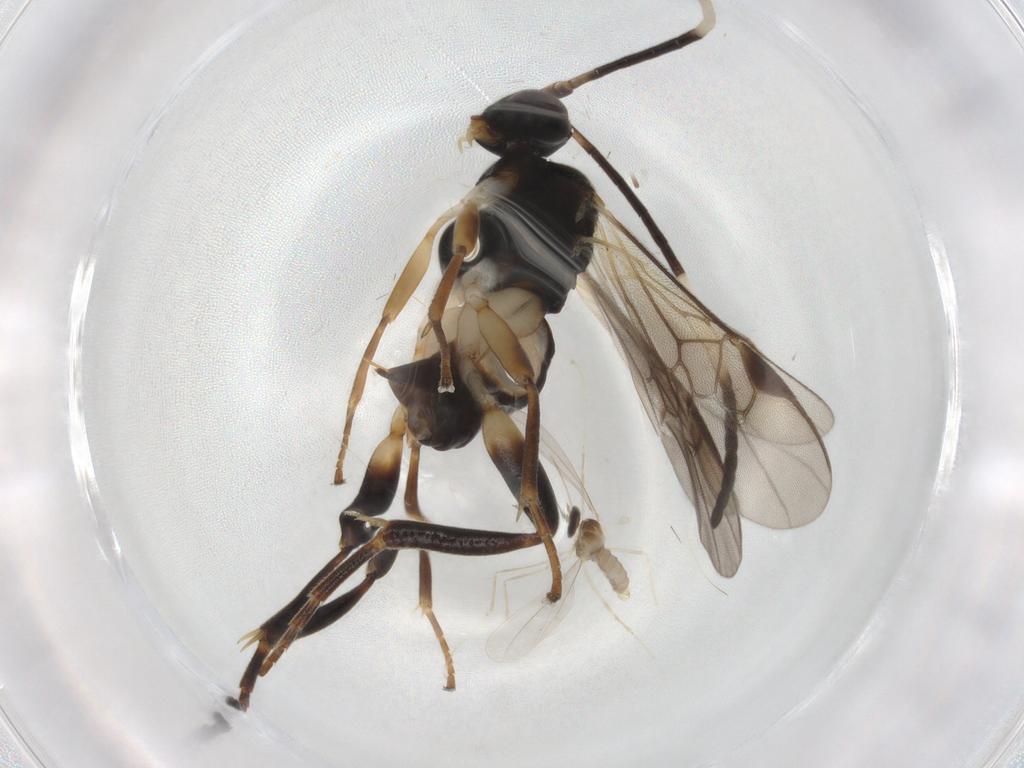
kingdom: Animalia
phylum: Arthropoda
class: Insecta
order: Hymenoptera
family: Braconidae
